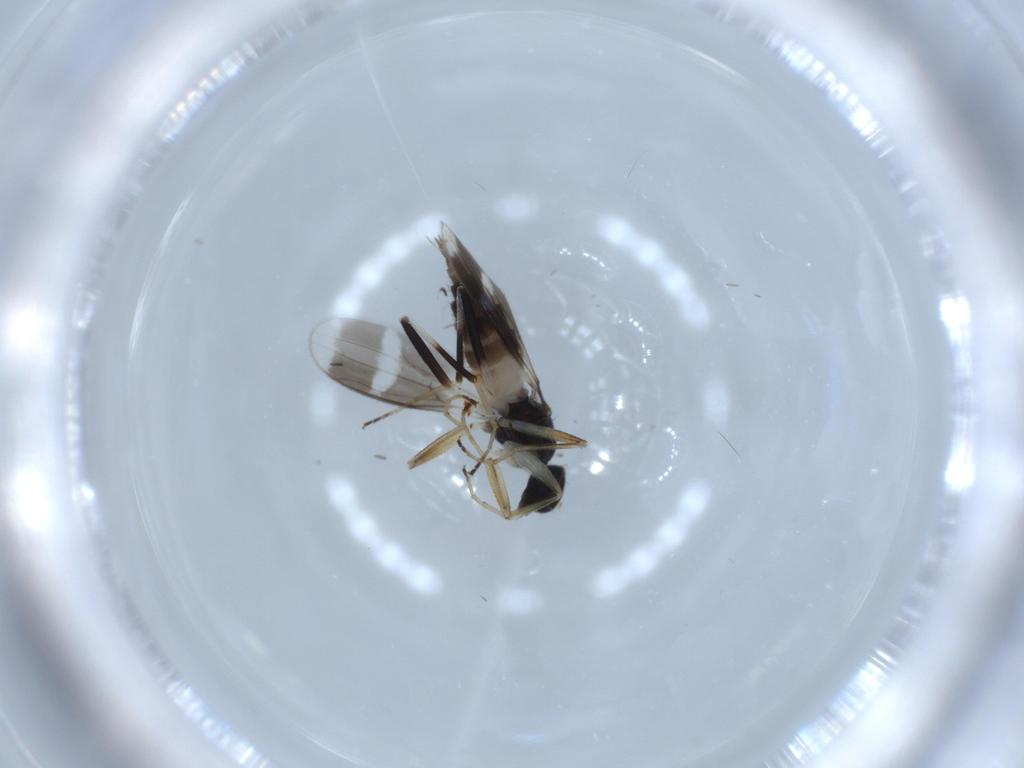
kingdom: Animalia
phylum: Arthropoda
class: Insecta
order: Diptera
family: Hybotidae
